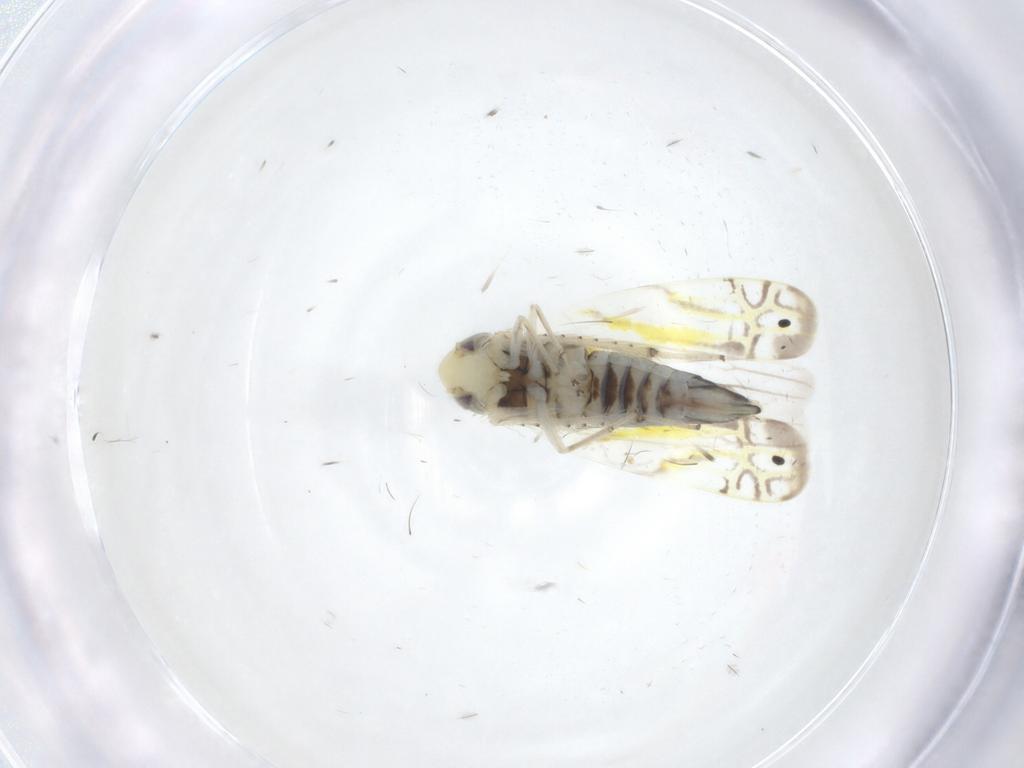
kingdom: Animalia
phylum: Arthropoda
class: Insecta
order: Hemiptera
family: Cicadellidae
